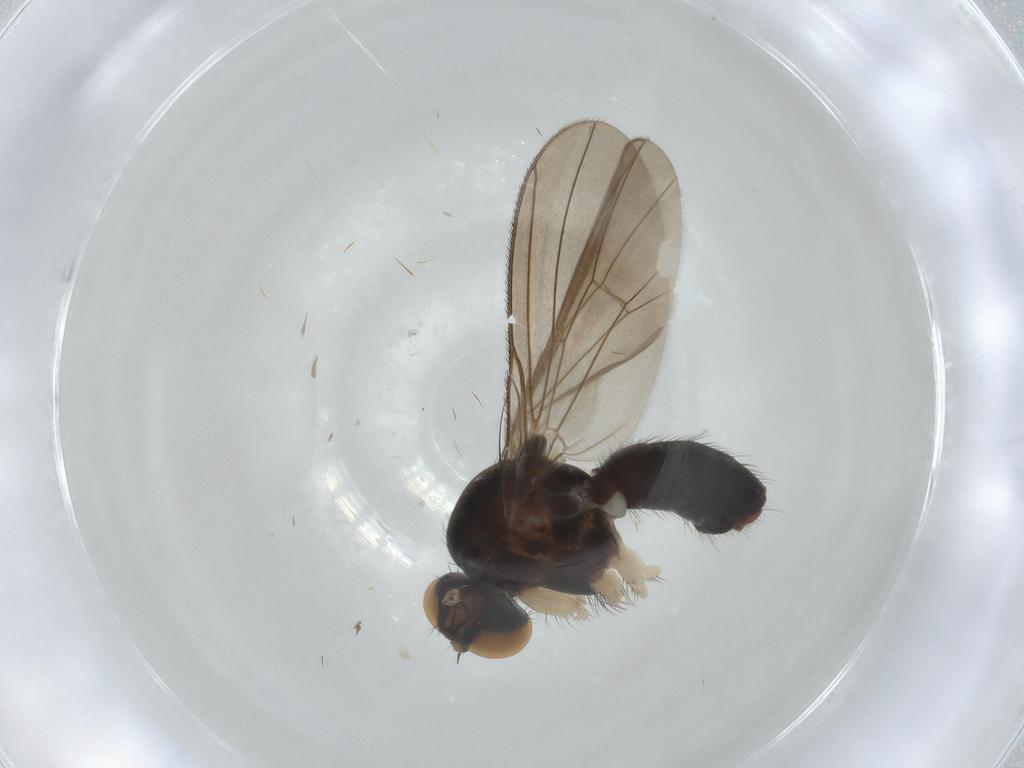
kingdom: Animalia
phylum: Arthropoda
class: Insecta
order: Diptera
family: Muscidae
